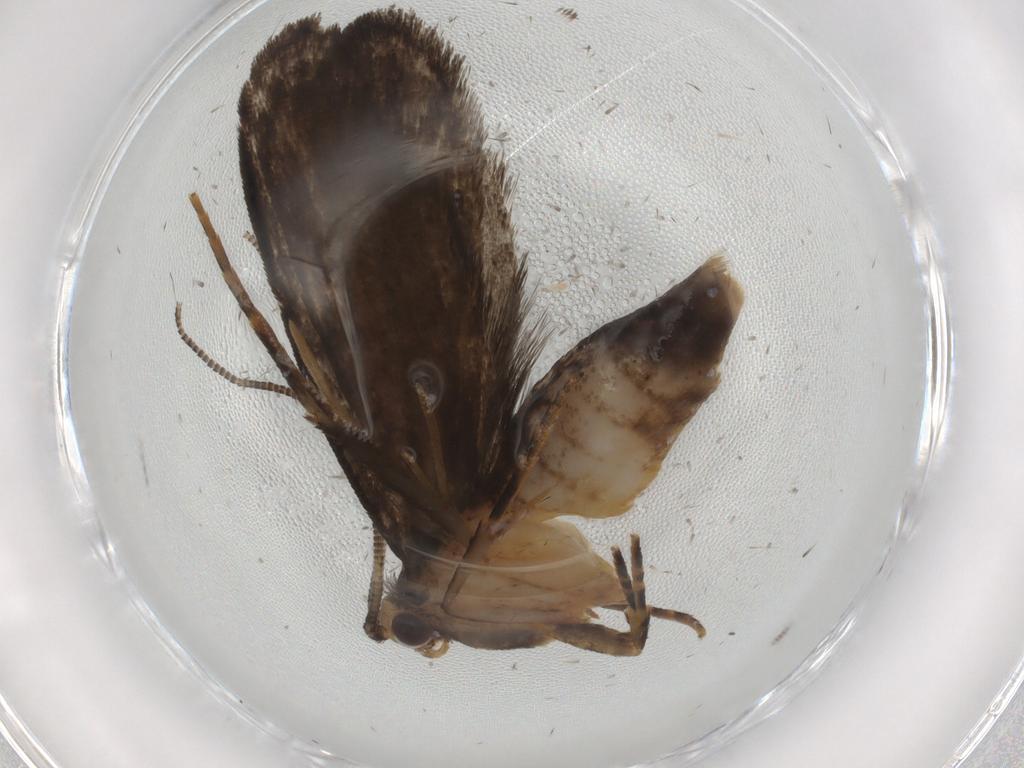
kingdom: Animalia
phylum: Arthropoda
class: Insecta
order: Lepidoptera
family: Tineidae
